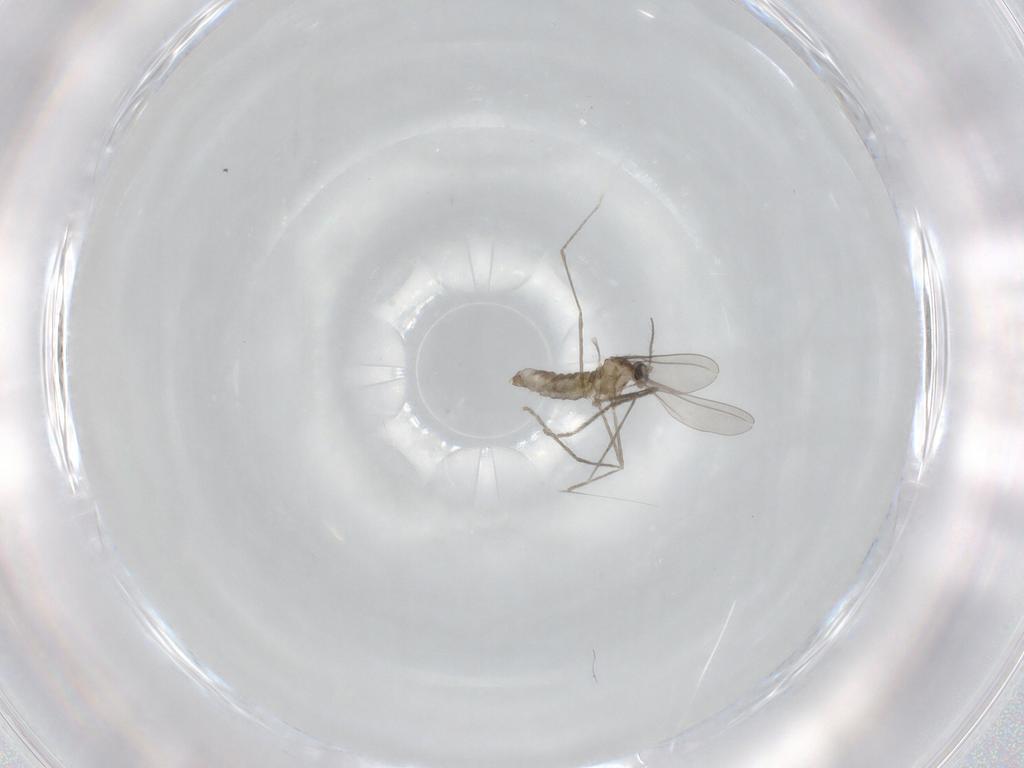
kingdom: Animalia
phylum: Arthropoda
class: Insecta
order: Diptera
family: Cecidomyiidae
